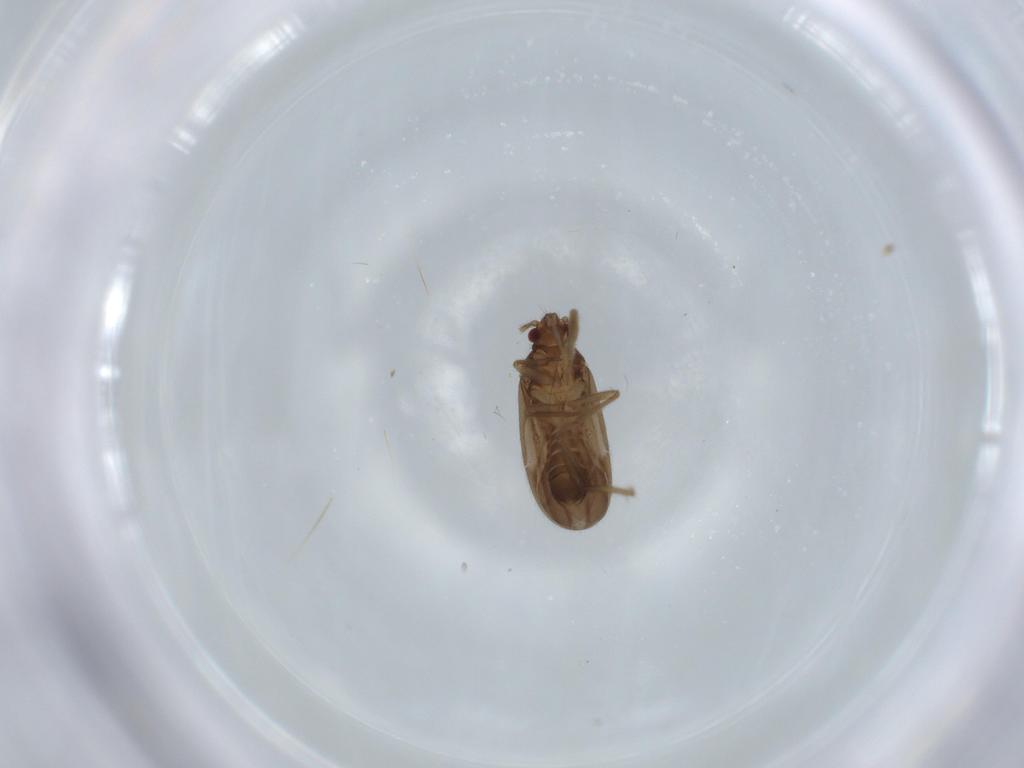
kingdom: Animalia
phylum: Arthropoda
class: Insecta
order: Hemiptera
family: Ceratocombidae
